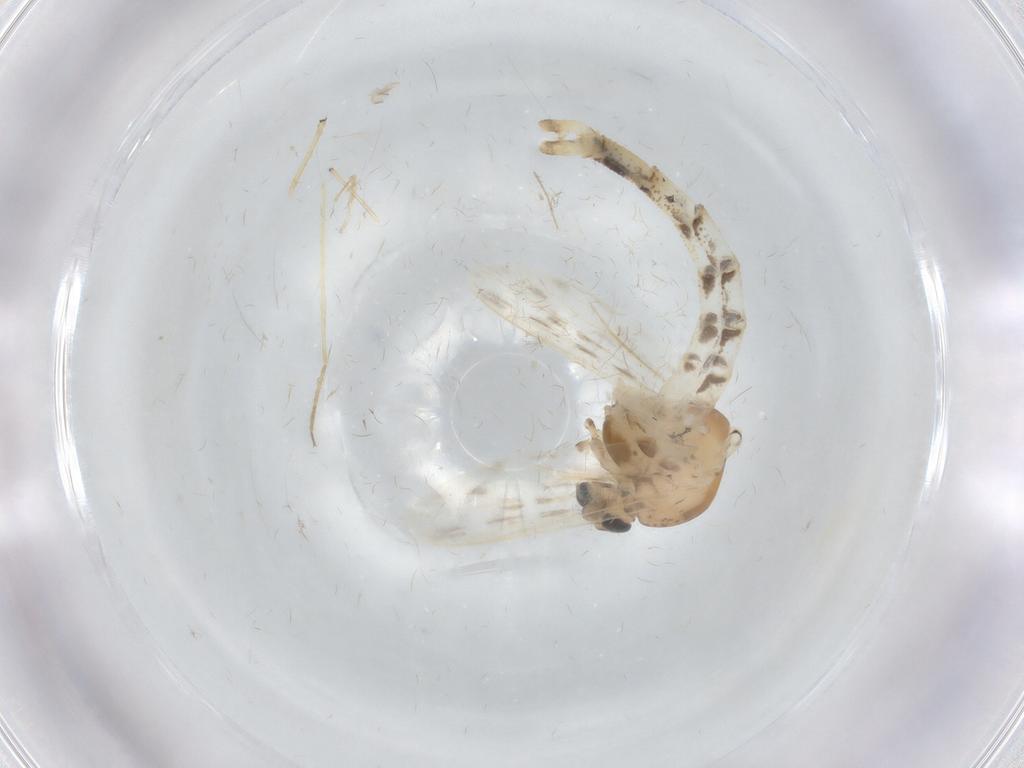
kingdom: Animalia
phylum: Arthropoda
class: Insecta
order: Diptera
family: Chaoboridae
